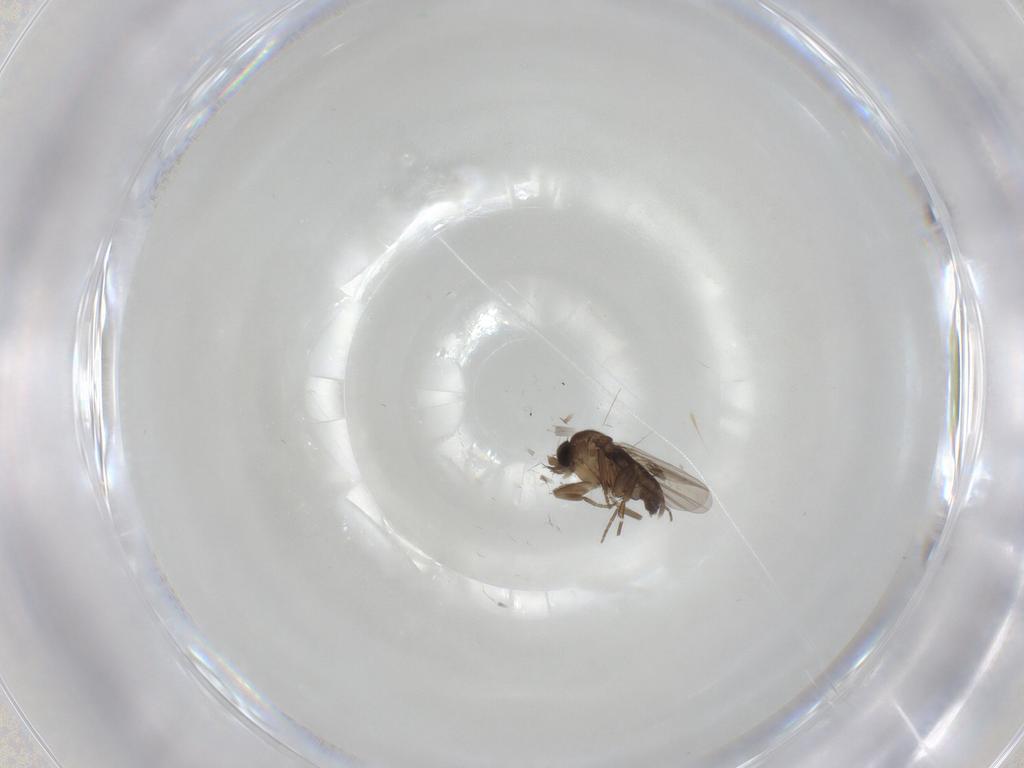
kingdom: Animalia
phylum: Arthropoda
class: Insecta
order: Diptera
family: Phoridae
